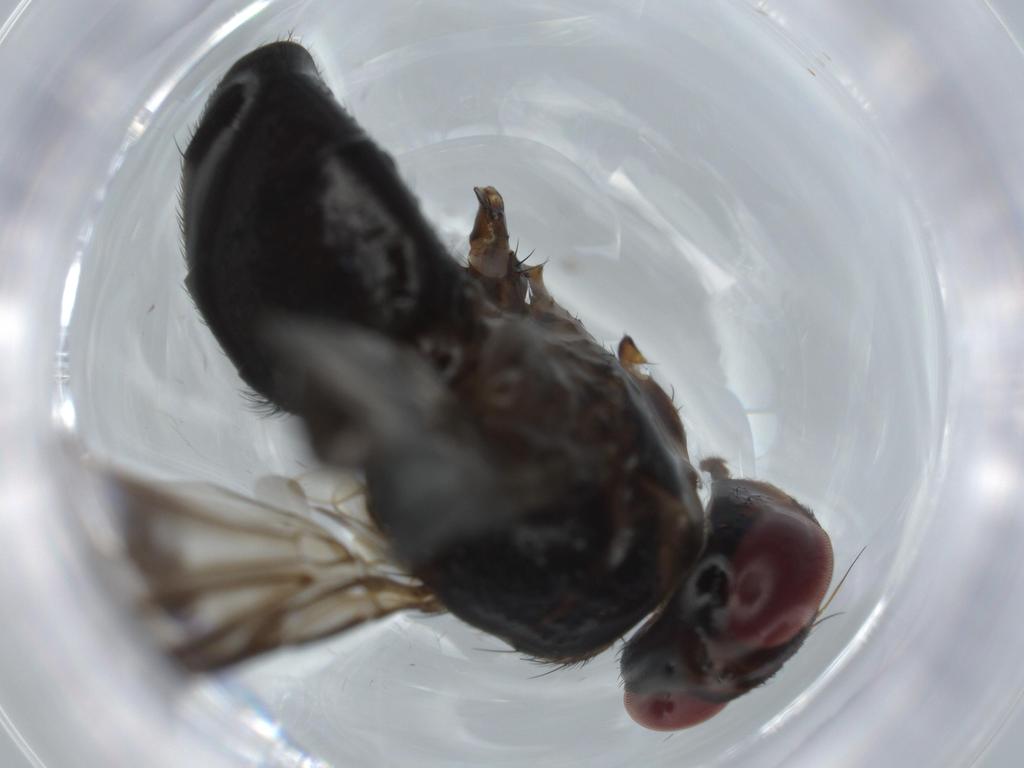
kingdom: Animalia
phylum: Arthropoda
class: Insecta
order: Diptera
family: Calliphoridae
